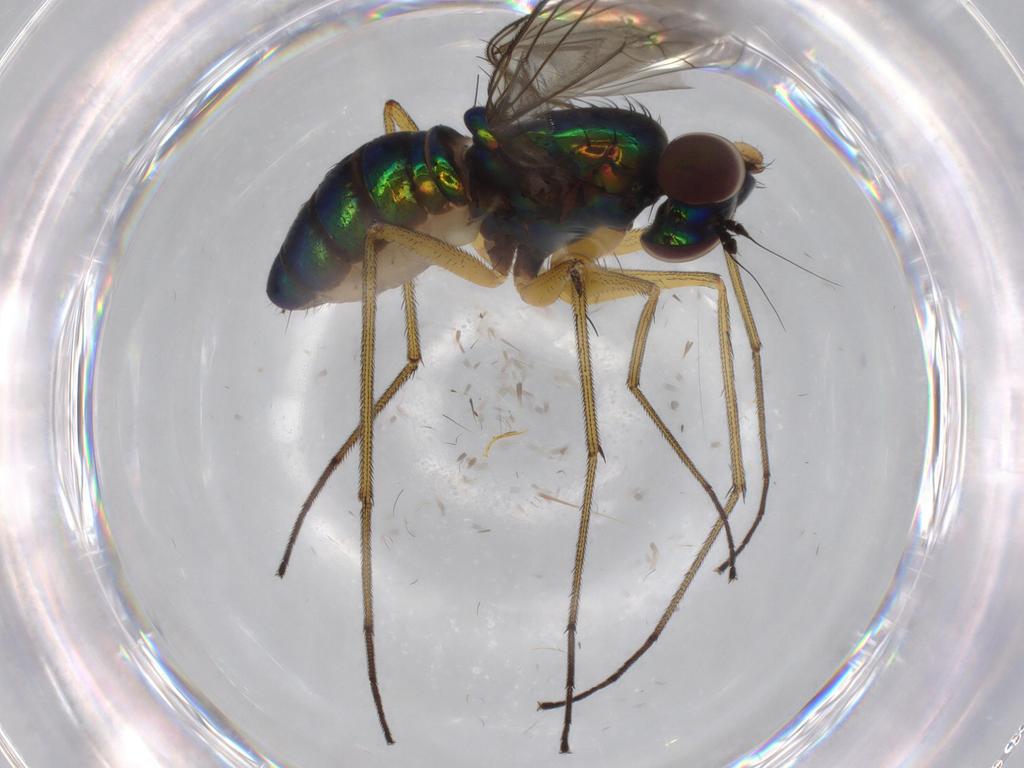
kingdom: Animalia
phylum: Arthropoda
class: Insecta
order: Diptera
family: Dolichopodidae
